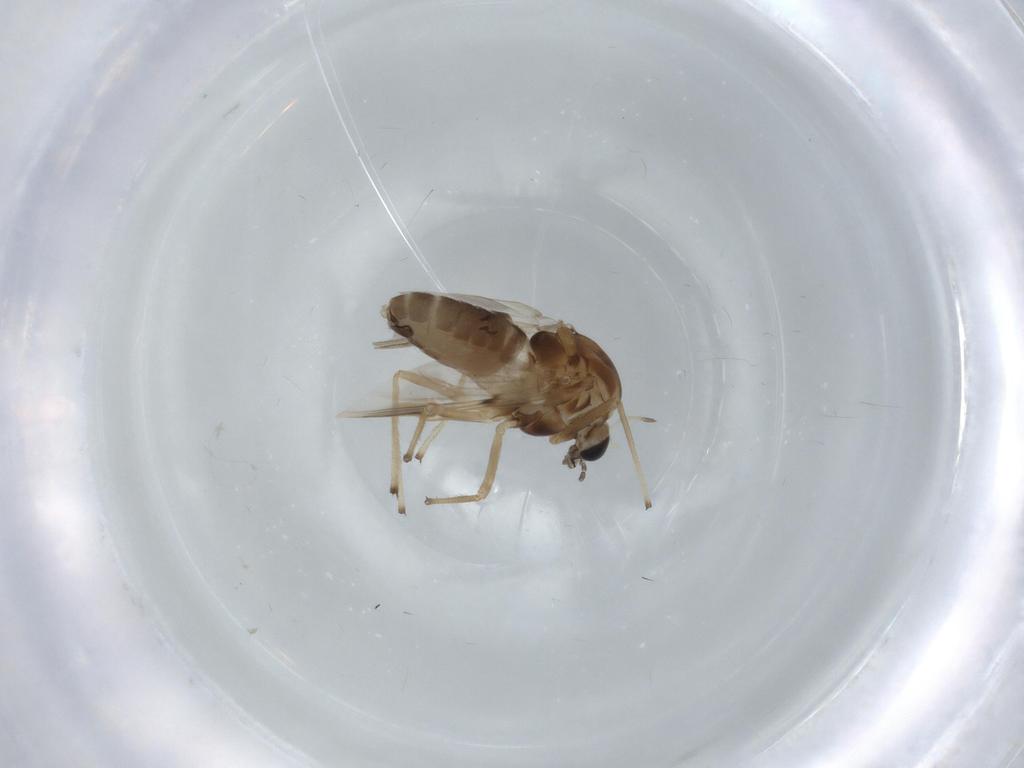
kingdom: Animalia
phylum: Arthropoda
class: Insecta
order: Diptera
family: Chironomidae
